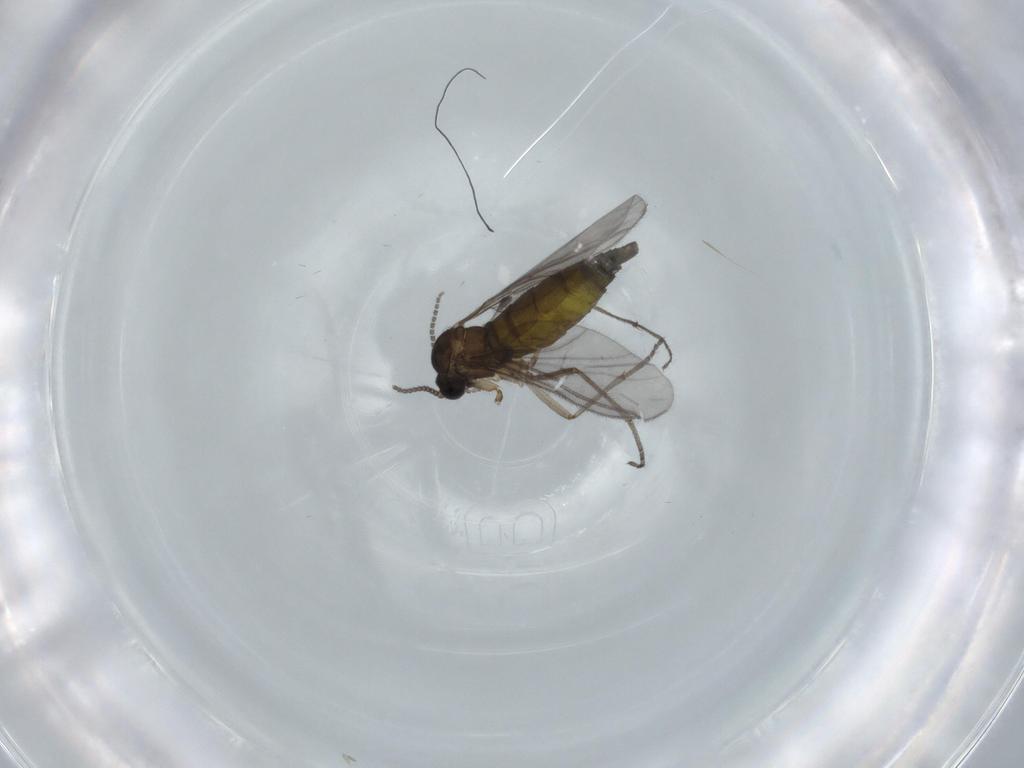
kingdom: Animalia
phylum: Arthropoda
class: Insecta
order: Diptera
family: Sciaridae
